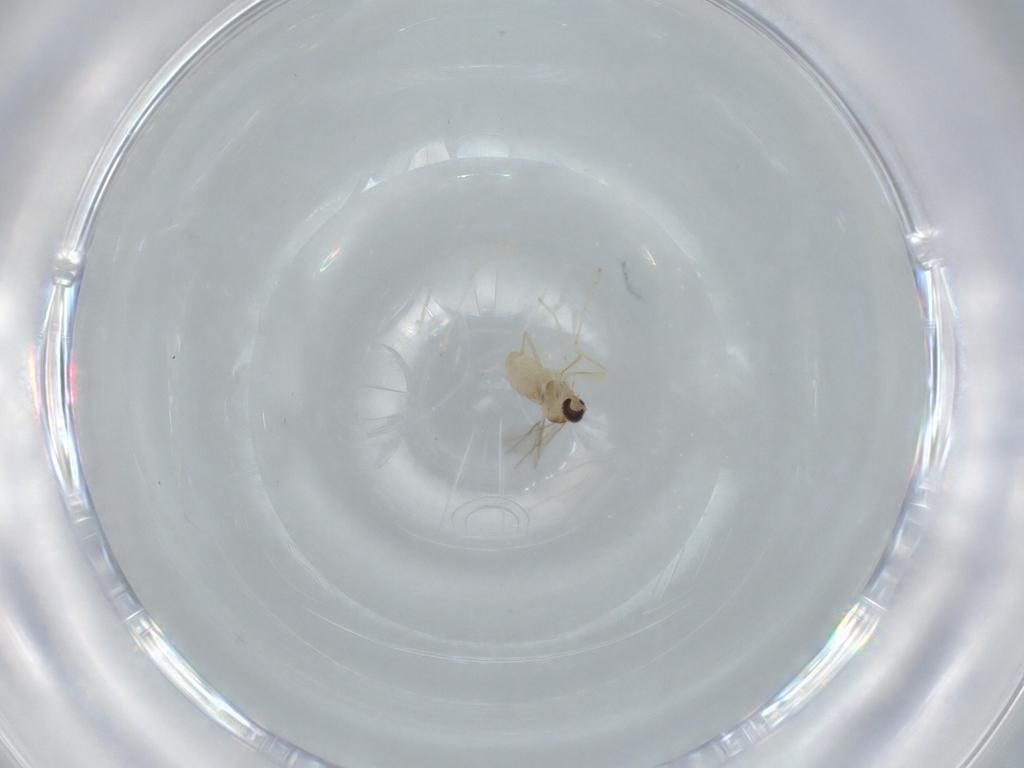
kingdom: Animalia
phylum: Arthropoda
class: Insecta
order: Diptera
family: Cecidomyiidae
